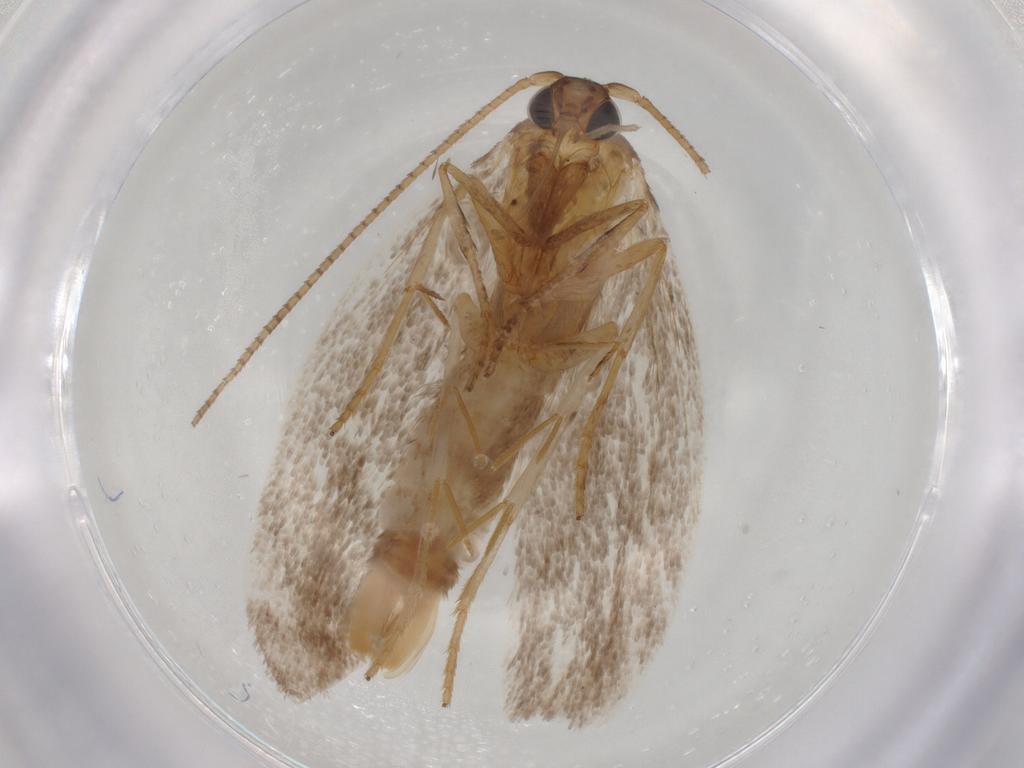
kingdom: Animalia
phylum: Arthropoda
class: Insecta
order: Lepidoptera
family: Roeslerstammiidae
